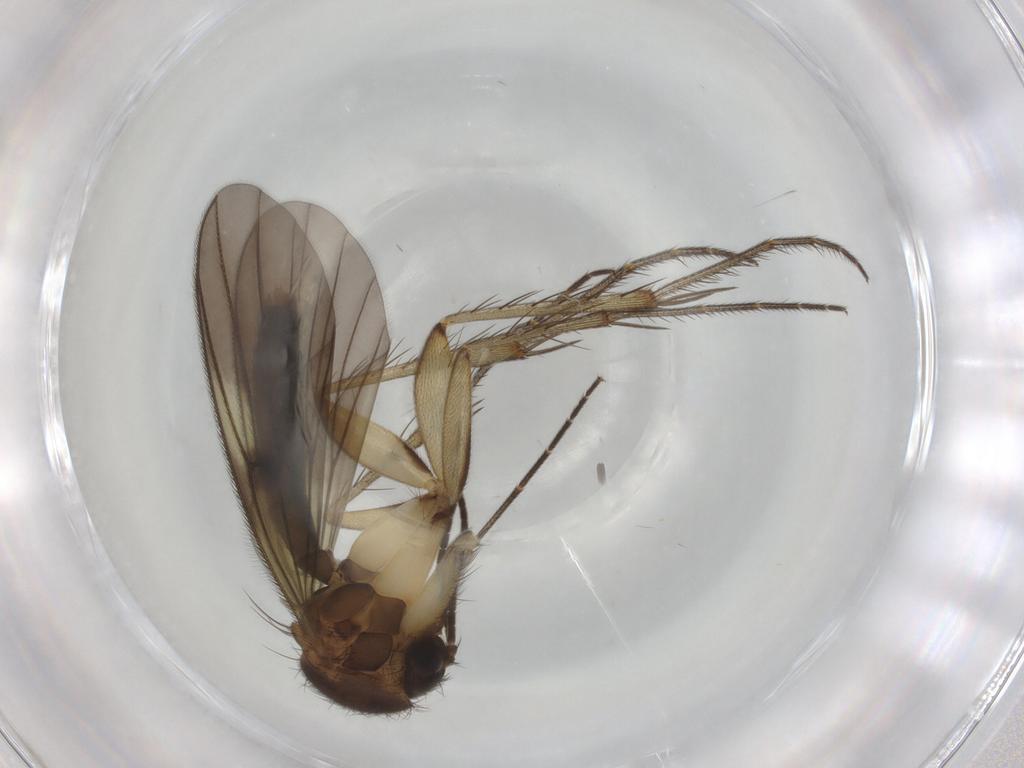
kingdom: Animalia
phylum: Arthropoda
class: Insecta
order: Diptera
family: Mycetophilidae
